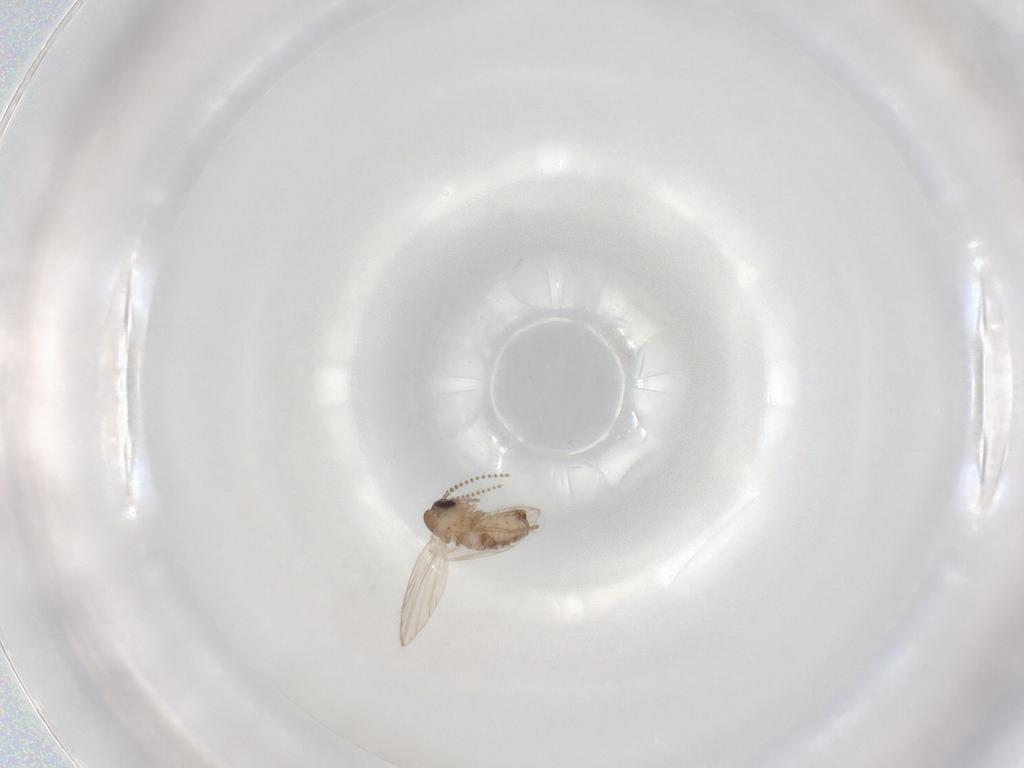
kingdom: Animalia
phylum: Arthropoda
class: Insecta
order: Diptera
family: Psychodidae
